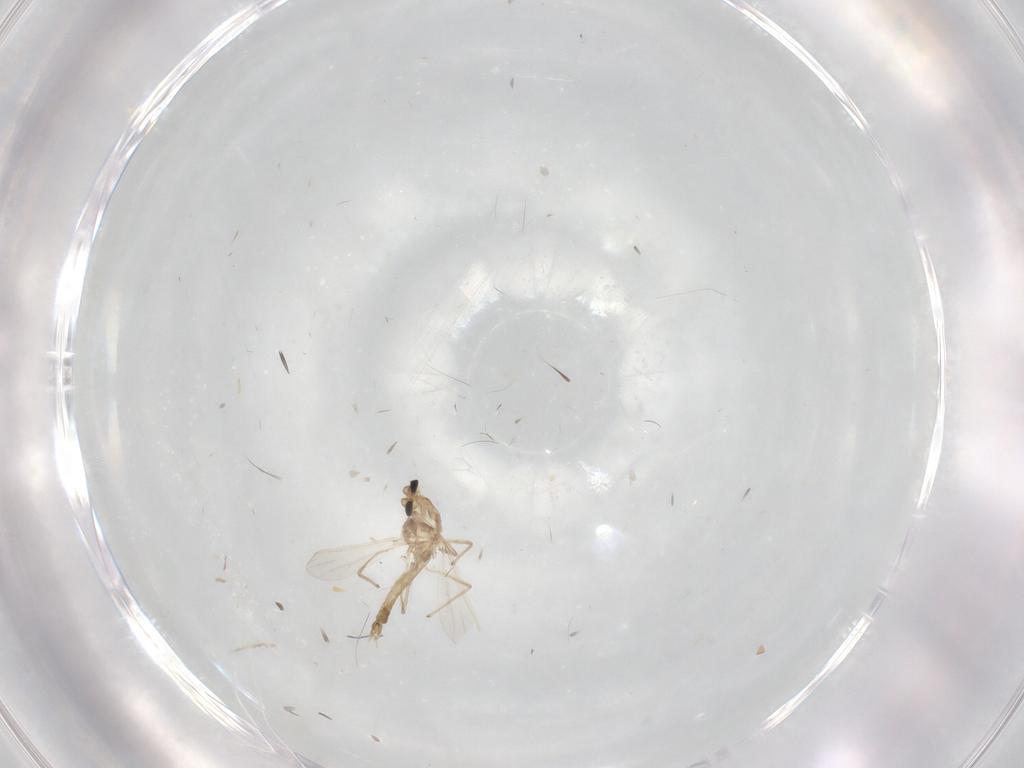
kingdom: Animalia
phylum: Arthropoda
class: Insecta
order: Diptera
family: Chironomidae
